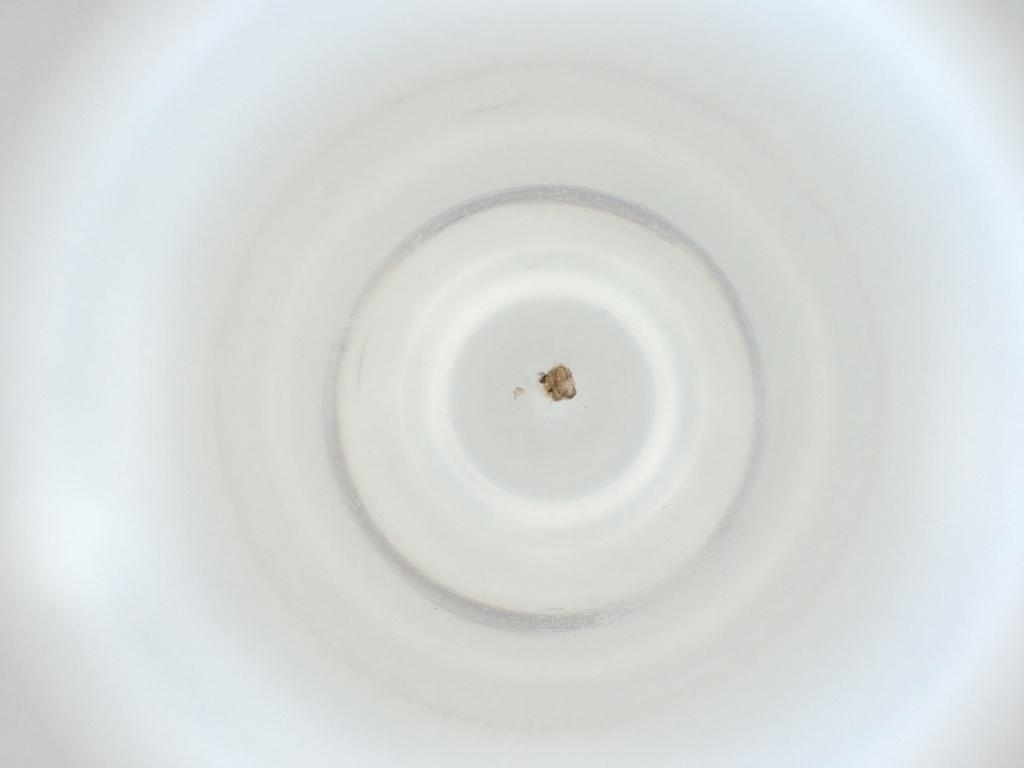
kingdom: Animalia
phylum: Arthropoda
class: Insecta
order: Diptera
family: Cecidomyiidae
